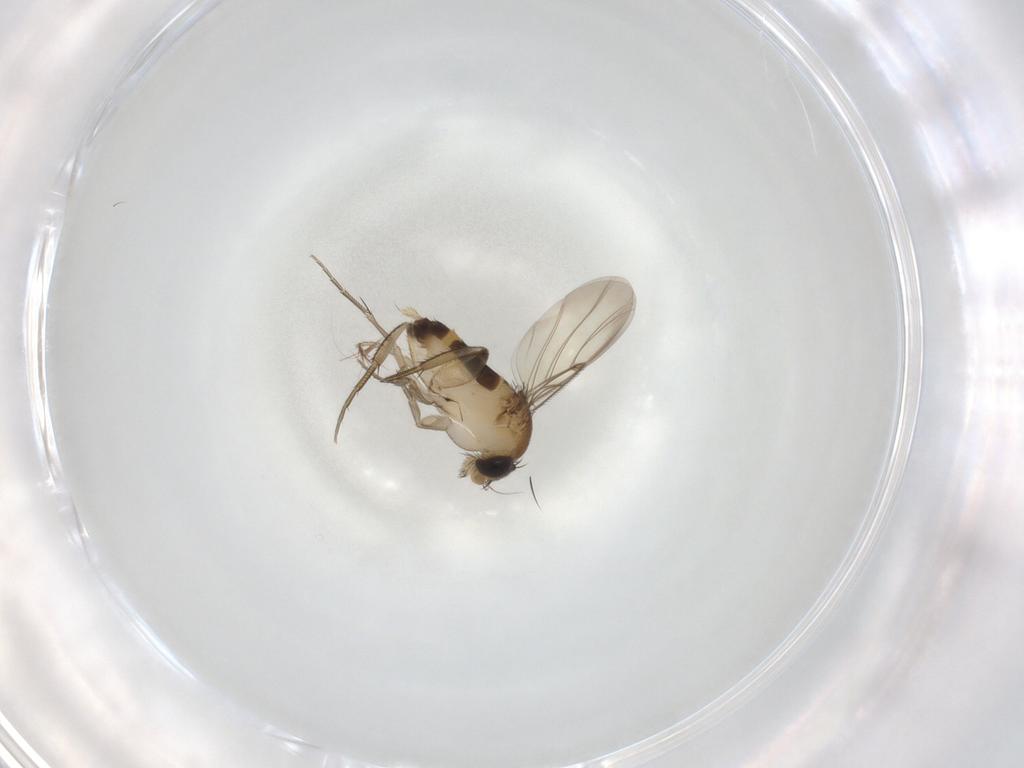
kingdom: Animalia
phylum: Arthropoda
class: Insecta
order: Diptera
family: Phoridae
